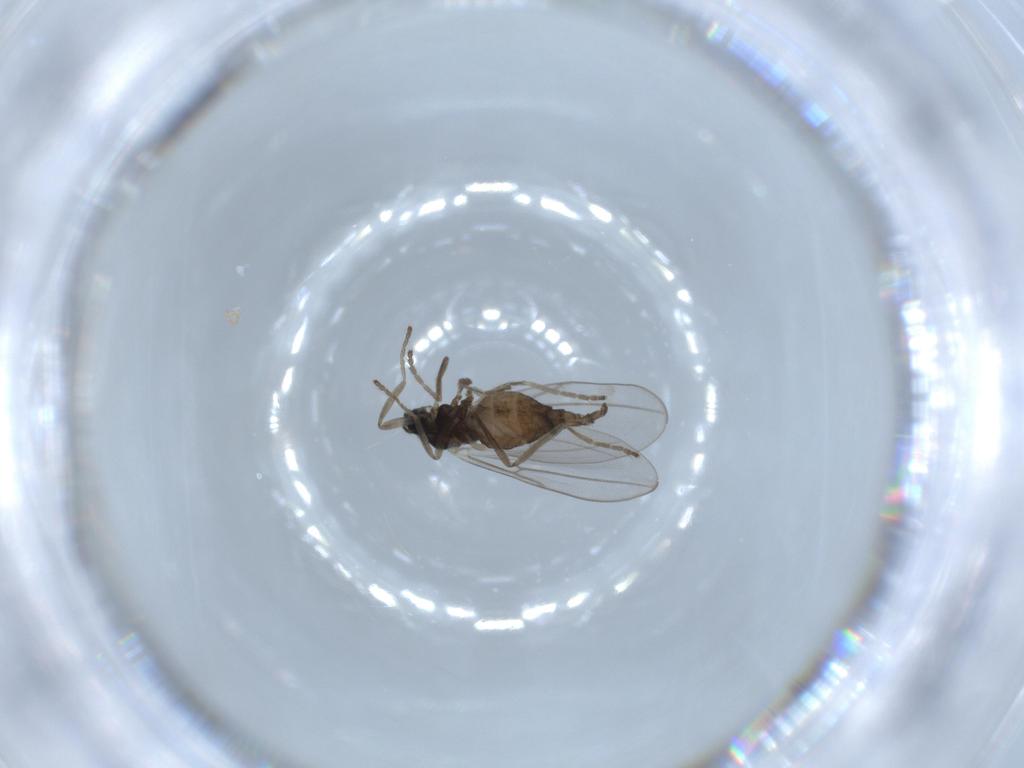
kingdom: Animalia
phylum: Arthropoda
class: Insecta
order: Diptera
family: Cecidomyiidae
